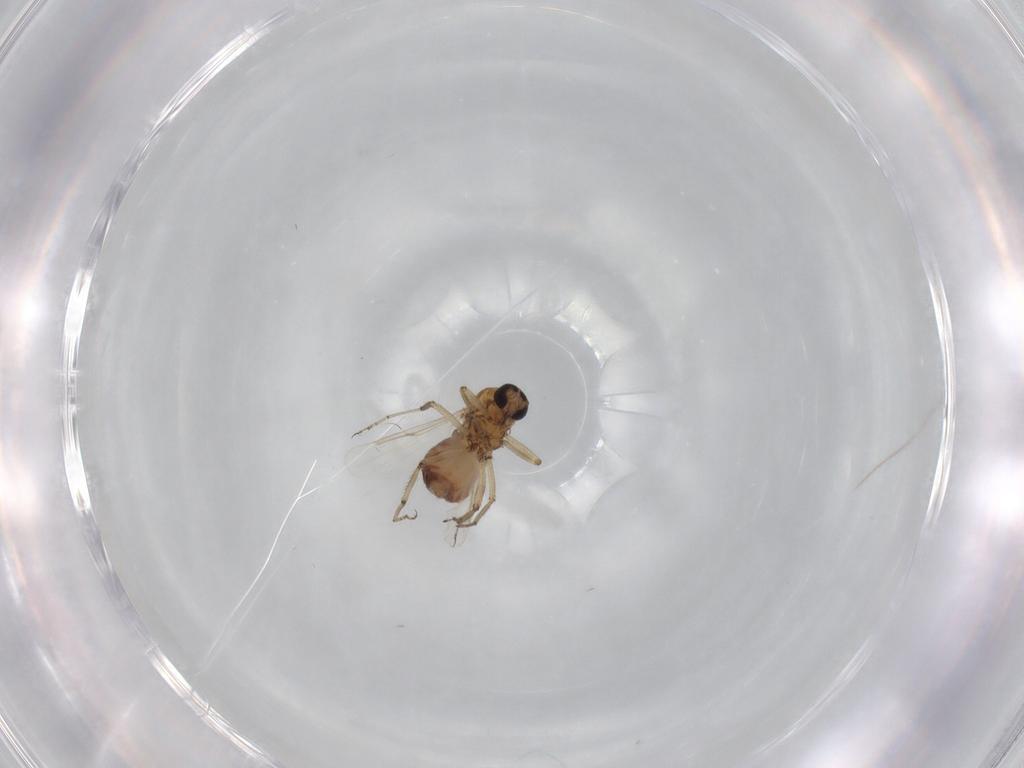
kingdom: Animalia
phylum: Arthropoda
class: Insecta
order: Diptera
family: Ceratopogonidae
